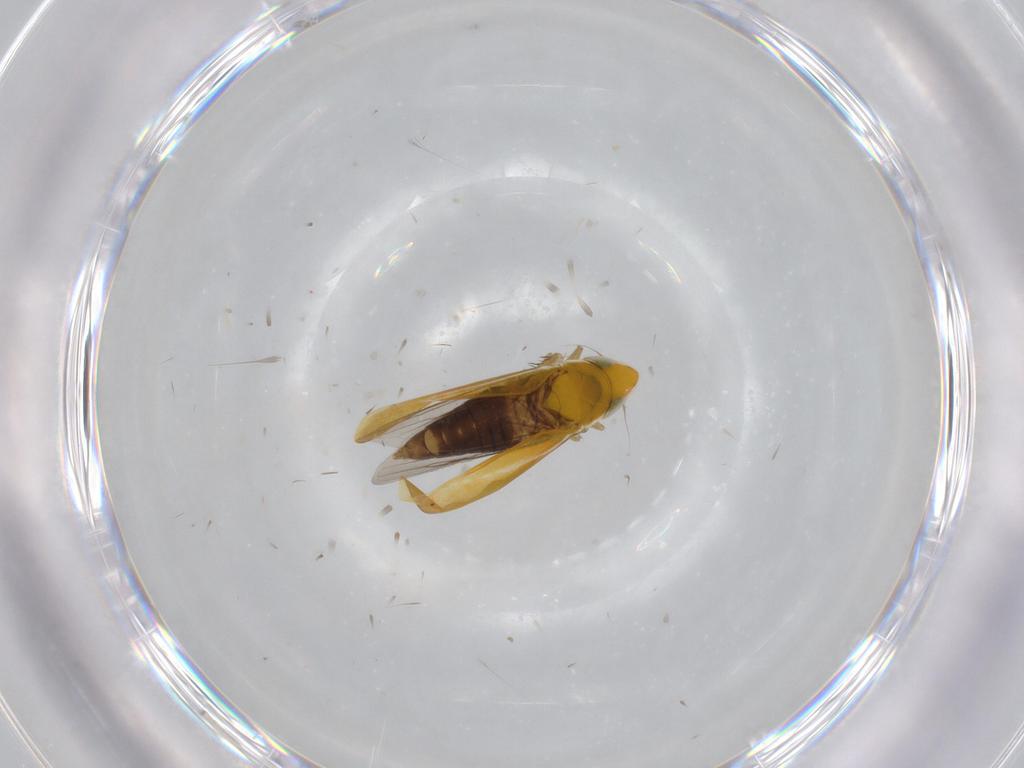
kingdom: Animalia
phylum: Arthropoda
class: Insecta
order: Hemiptera
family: Cicadellidae
